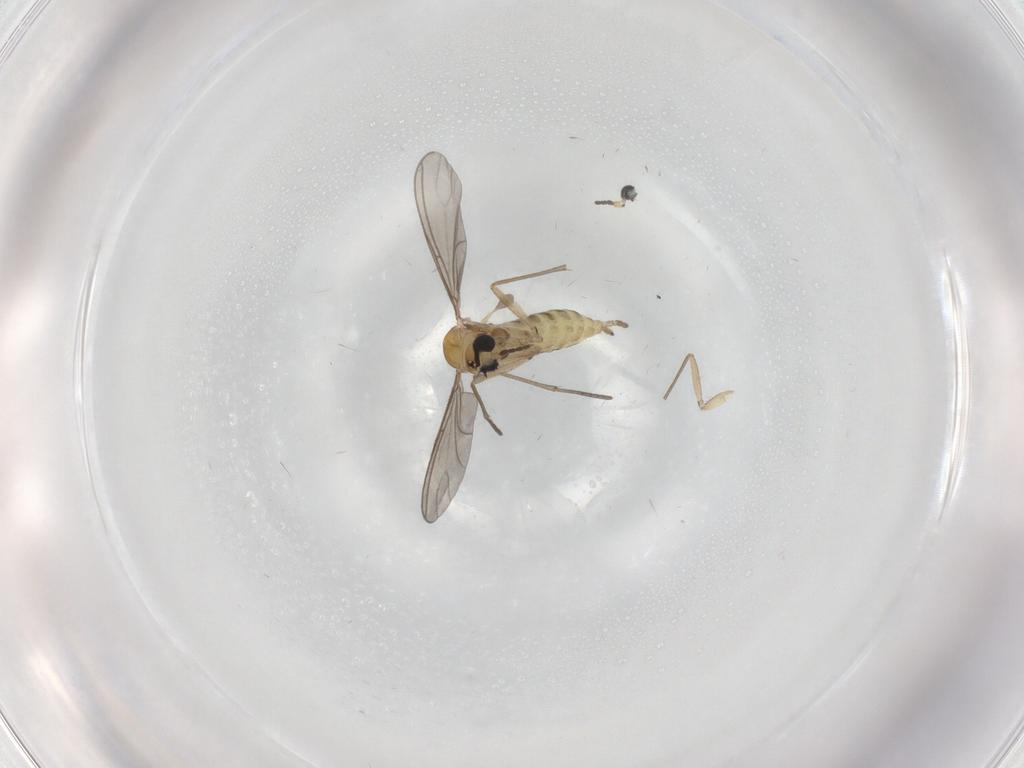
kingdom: Animalia
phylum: Arthropoda
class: Insecta
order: Diptera
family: Sciaridae
